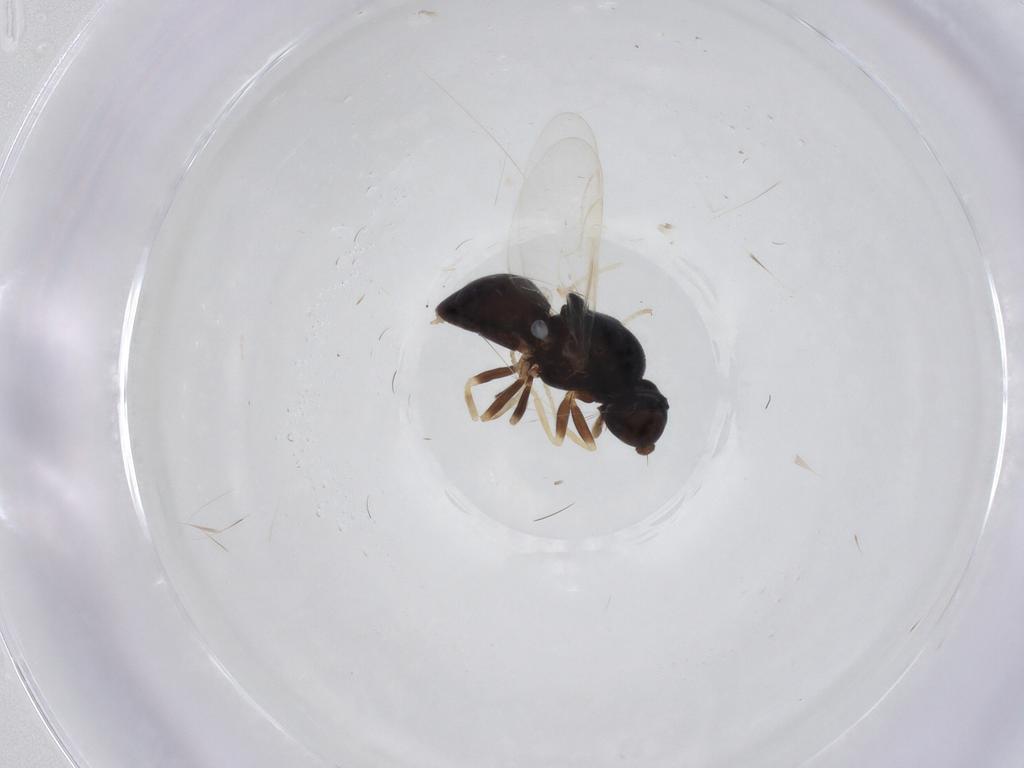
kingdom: Animalia
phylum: Arthropoda
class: Insecta
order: Diptera
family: Stratiomyidae
